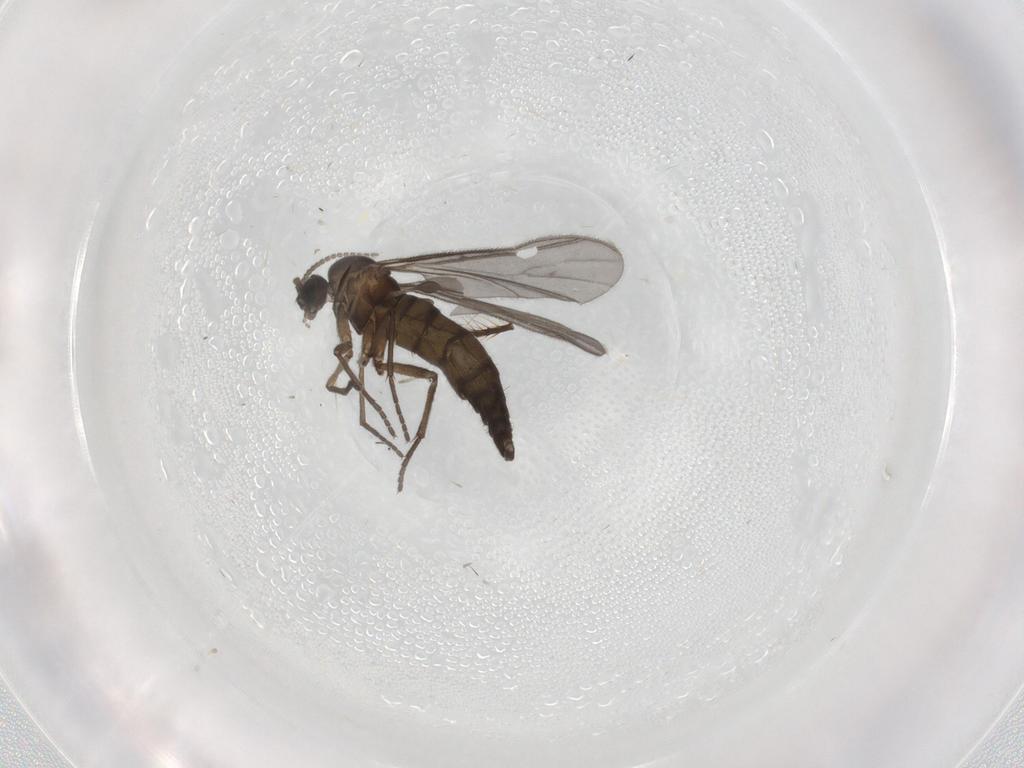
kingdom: Animalia
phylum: Arthropoda
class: Insecta
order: Diptera
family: Sciaridae
